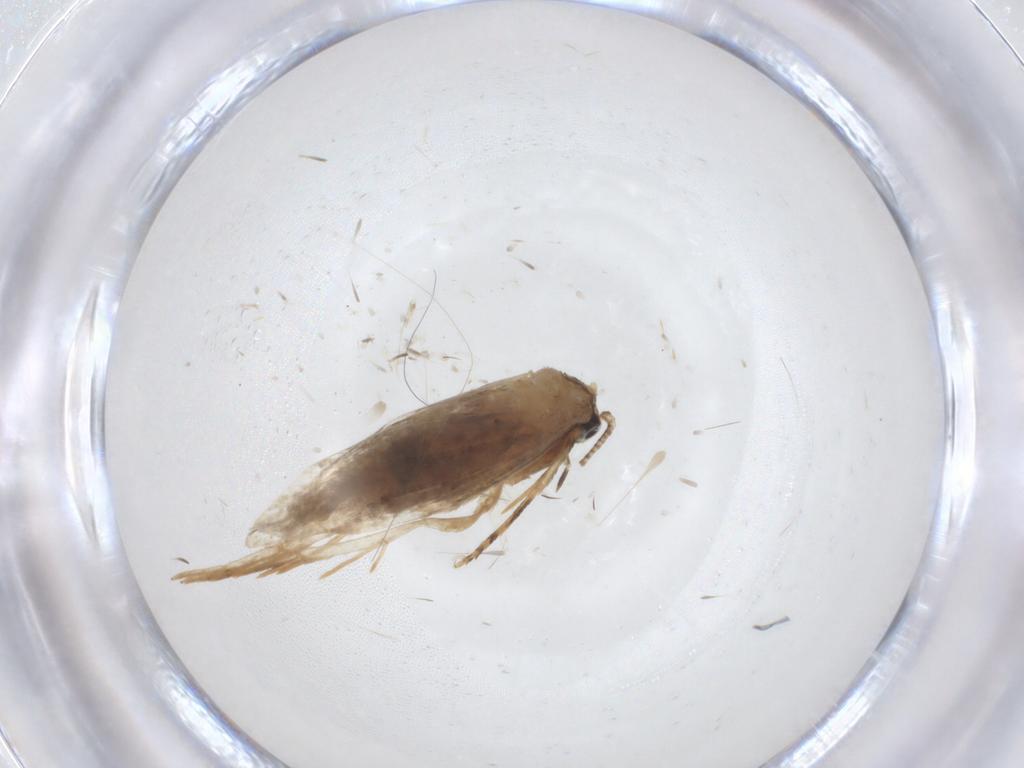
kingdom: Animalia
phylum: Arthropoda
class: Insecta
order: Lepidoptera
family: Tineidae
